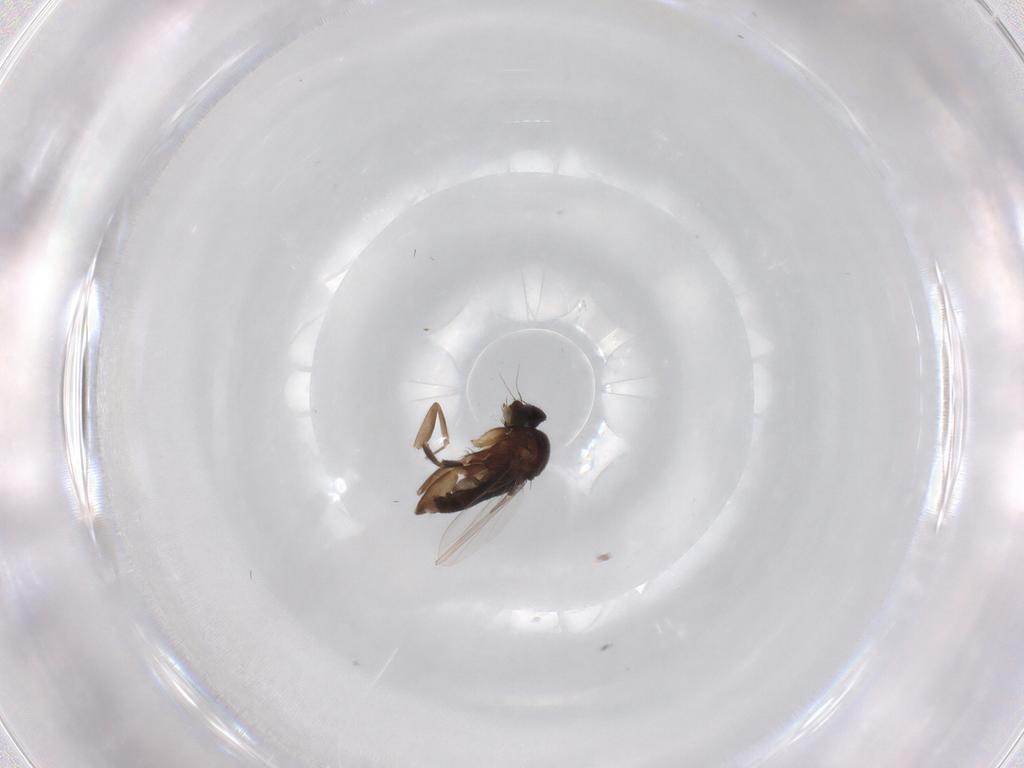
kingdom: Animalia
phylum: Arthropoda
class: Insecta
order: Diptera
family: Phoridae
